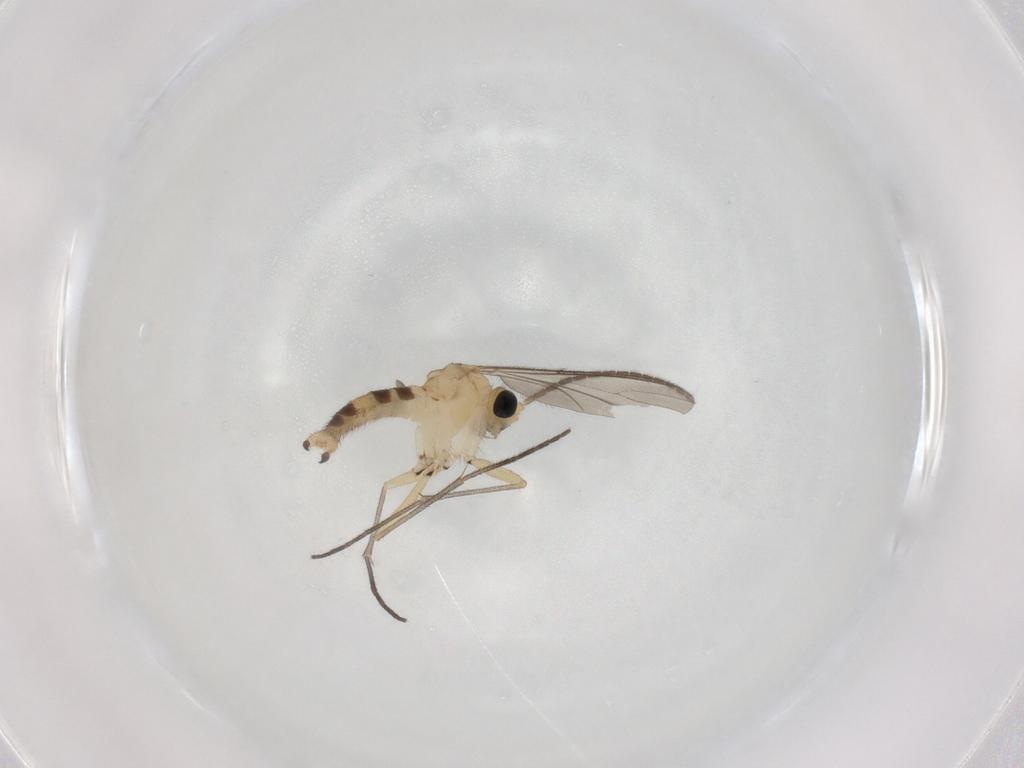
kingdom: Animalia
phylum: Arthropoda
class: Insecta
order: Diptera
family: Sciaridae
